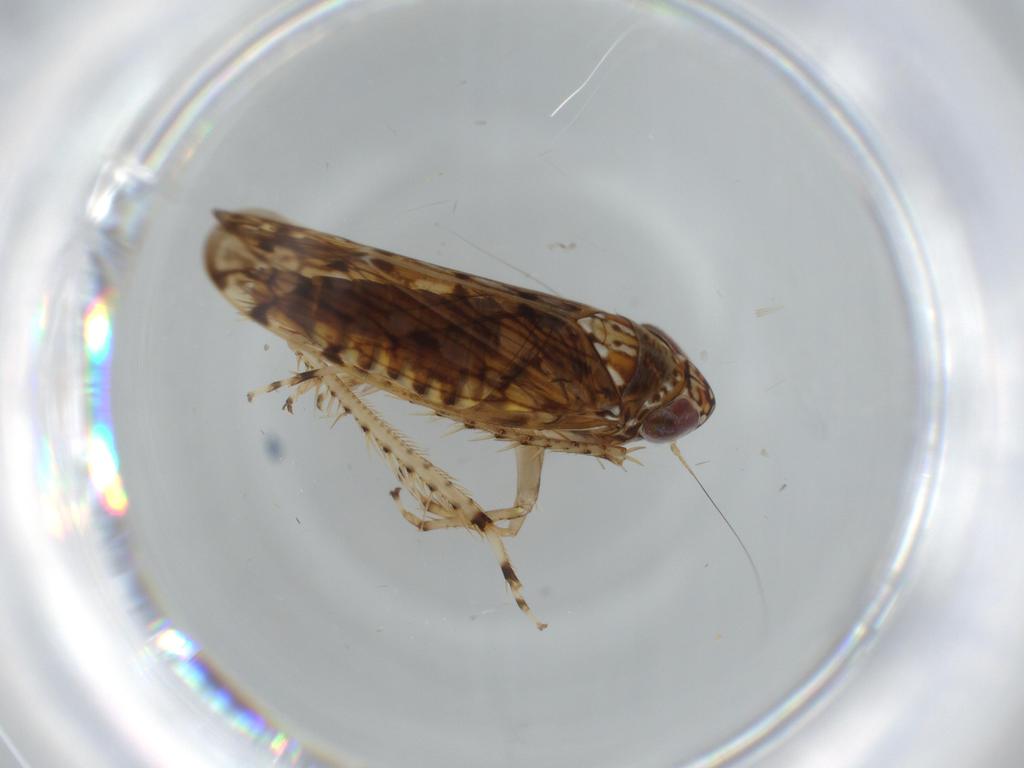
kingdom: Animalia
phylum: Arthropoda
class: Insecta
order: Hemiptera
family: Cicadellidae
